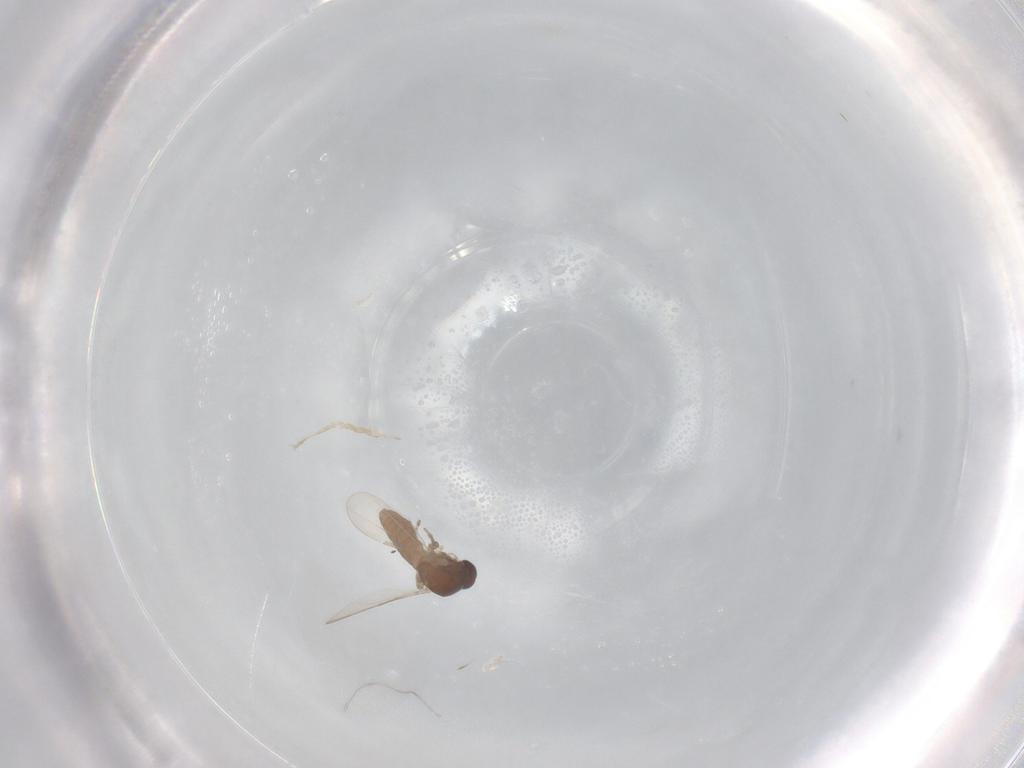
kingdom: Animalia
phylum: Arthropoda
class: Insecta
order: Diptera
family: Ceratopogonidae
